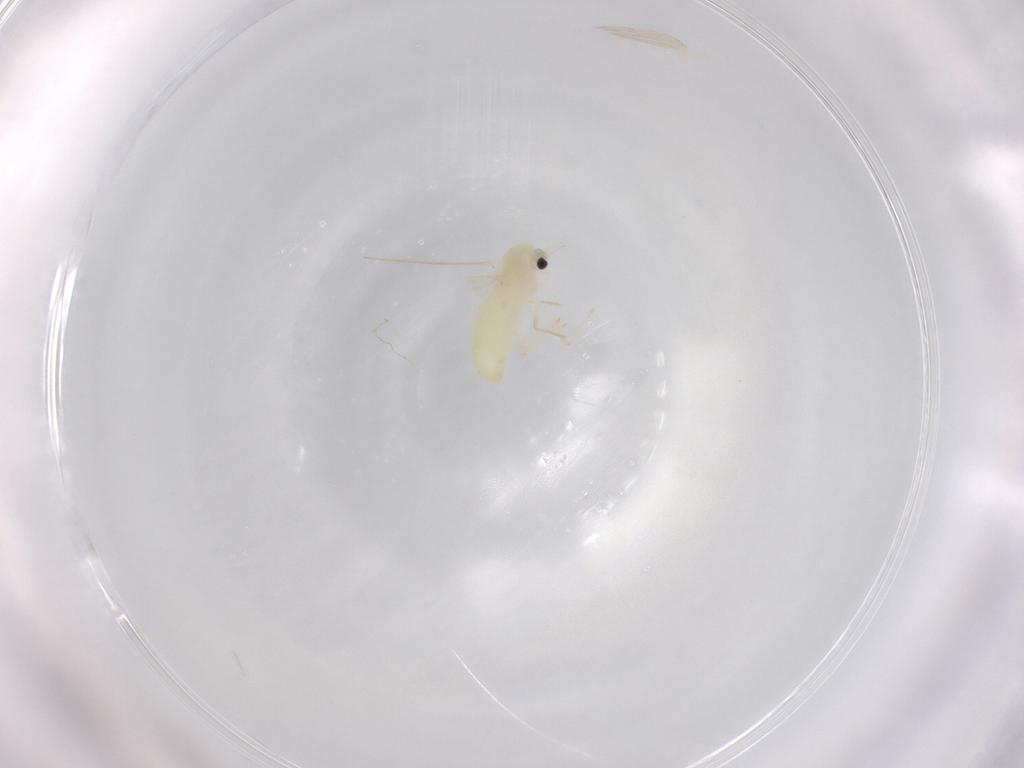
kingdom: Animalia
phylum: Arthropoda
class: Insecta
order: Diptera
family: Chironomidae
